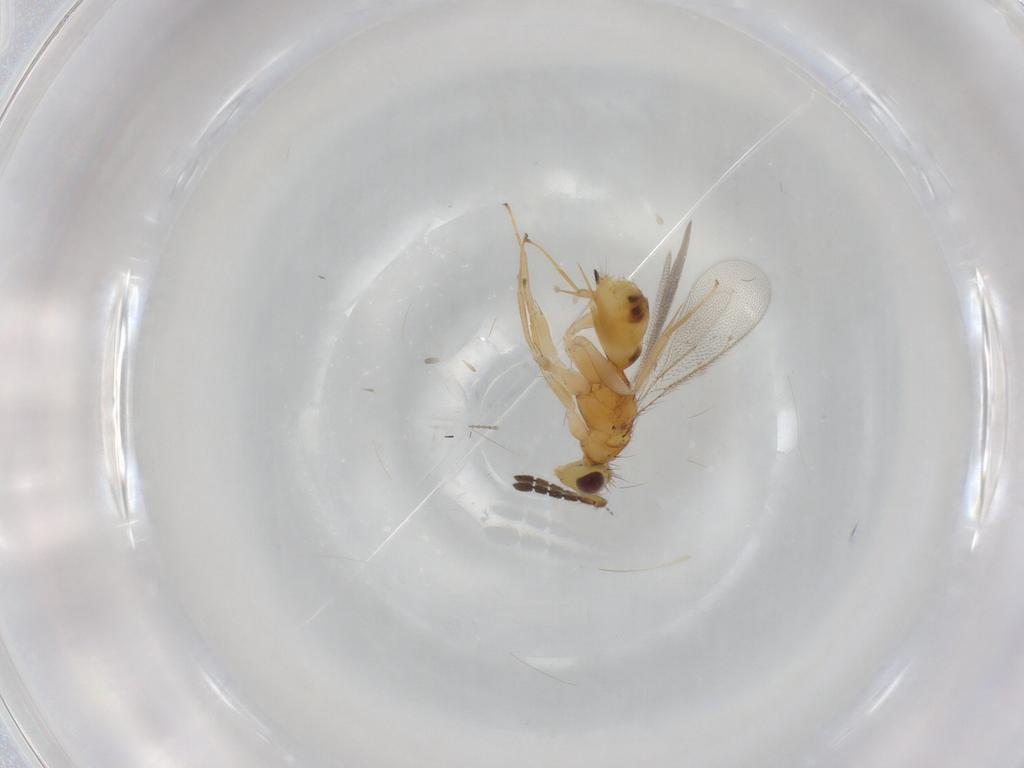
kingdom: Animalia
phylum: Arthropoda
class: Insecta
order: Hymenoptera
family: Eulophidae
